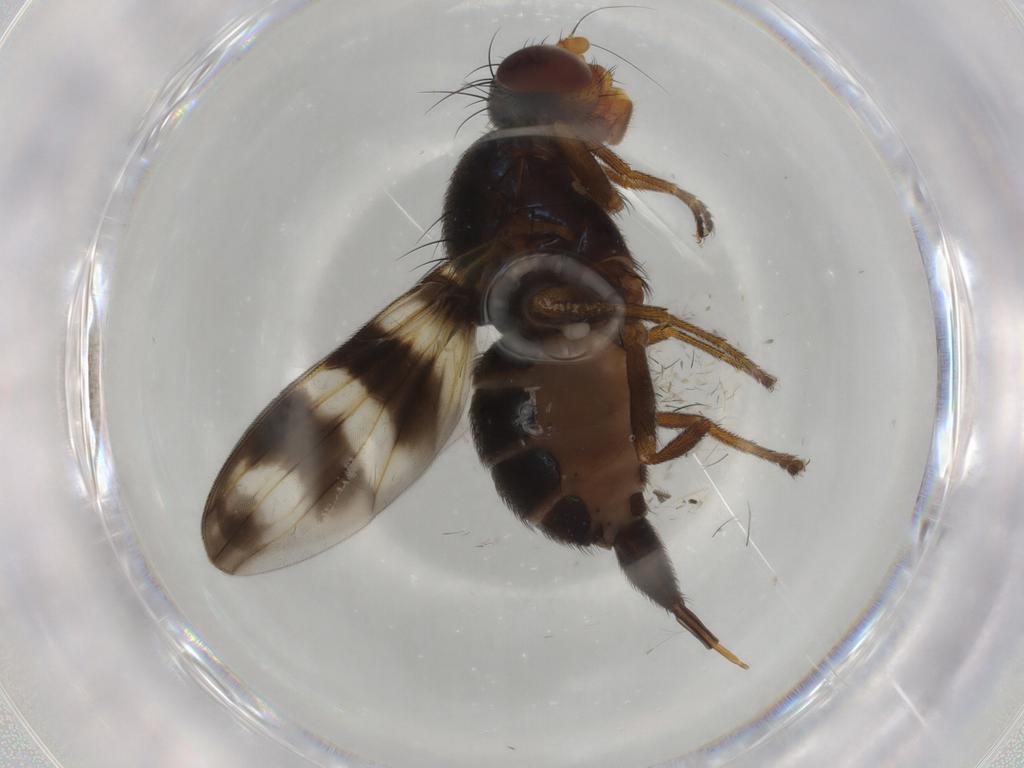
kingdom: Animalia
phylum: Arthropoda
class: Insecta
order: Diptera
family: Ulidiidae
